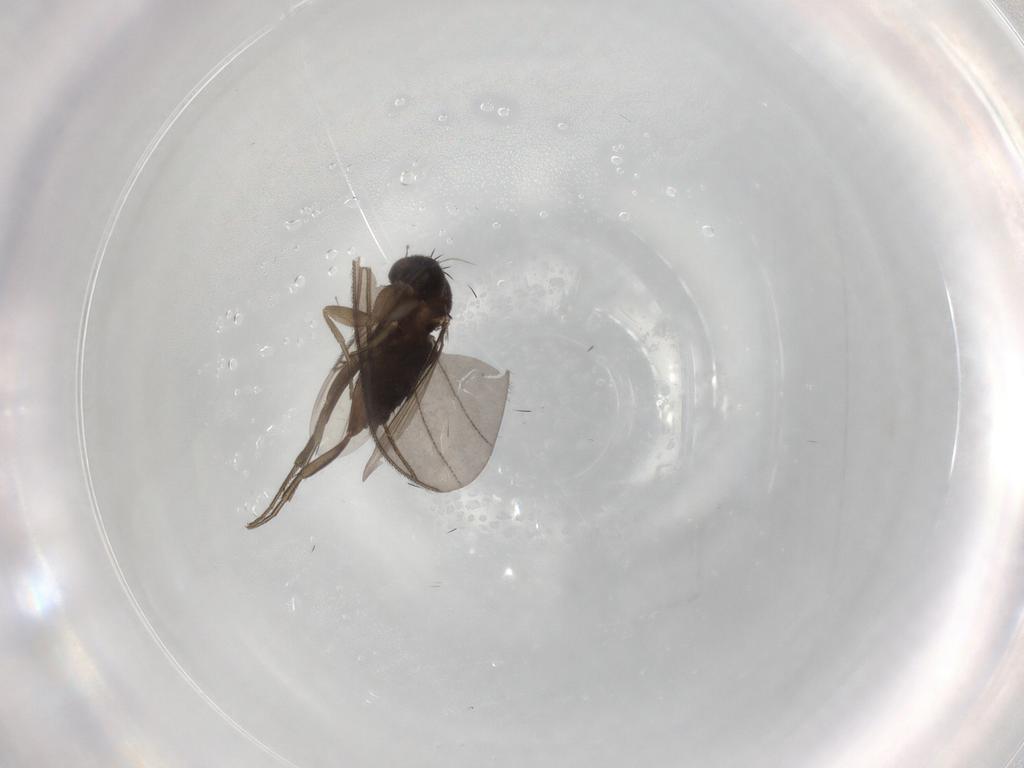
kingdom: Animalia
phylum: Arthropoda
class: Insecta
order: Diptera
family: Phoridae
